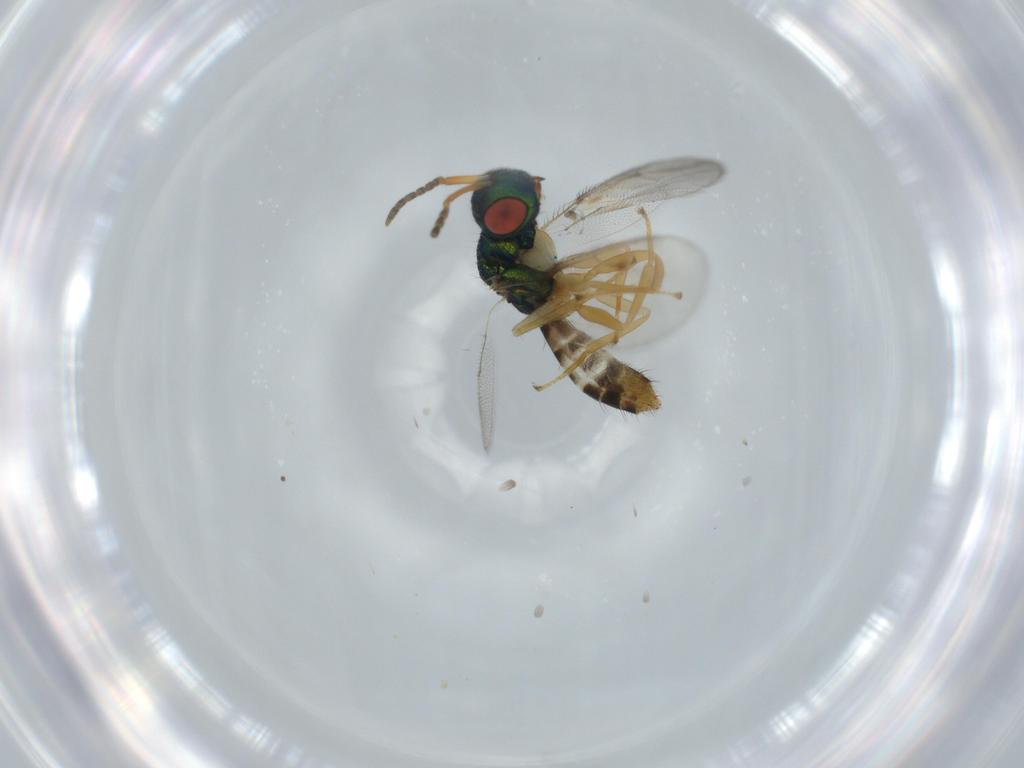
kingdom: Animalia
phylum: Arthropoda
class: Insecta
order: Hymenoptera
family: Pteromalidae
